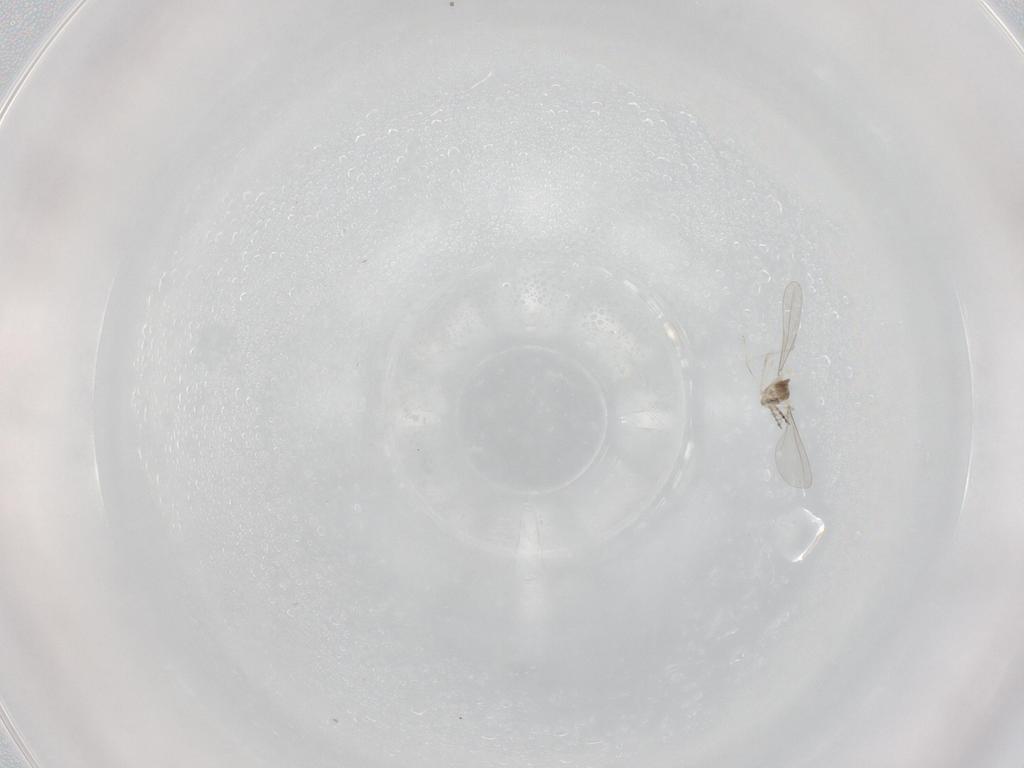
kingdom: Animalia
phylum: Arthropoda
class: Insecta
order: Diptera
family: Cecidomyiidae
